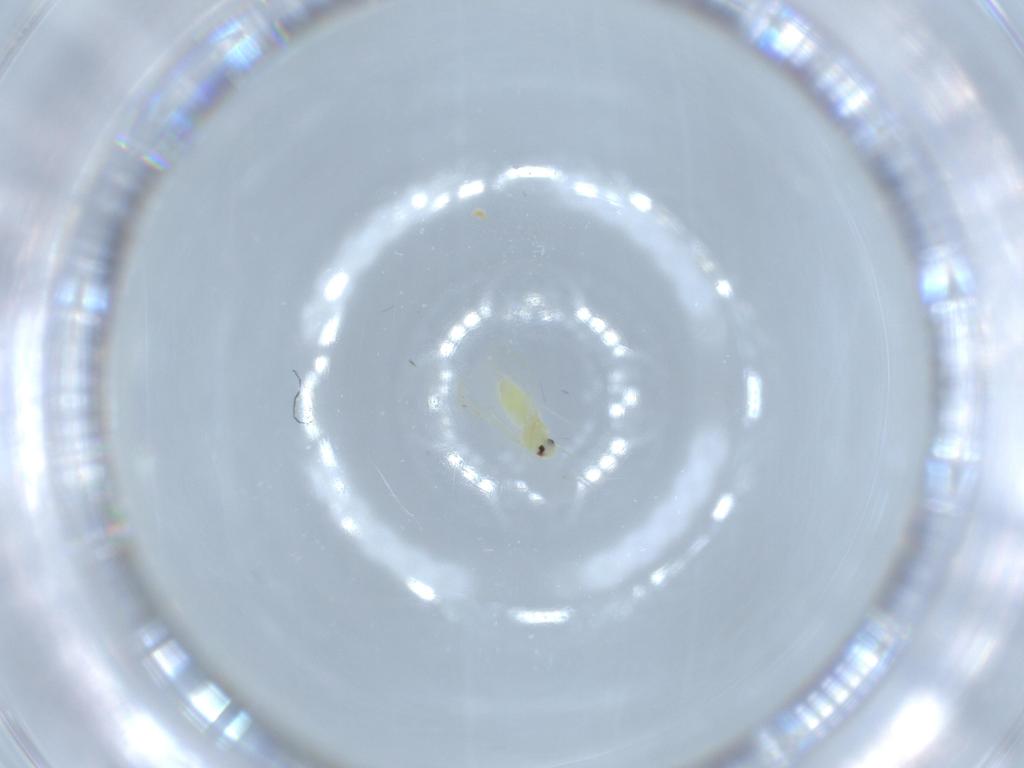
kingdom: Animalia
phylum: Arthropoda
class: Insecta
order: Hemiptera
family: Aleyrodidae
